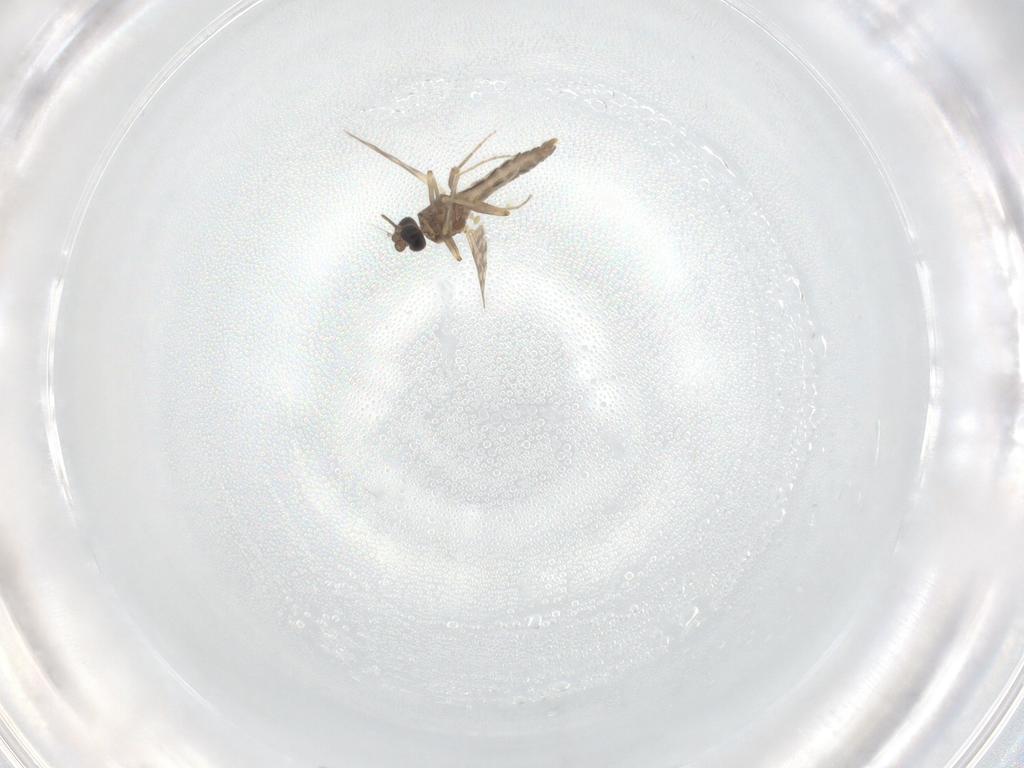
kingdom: Animalia
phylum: Arthropoda
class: Insecta
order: Diptera
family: Ceratopogonidae
